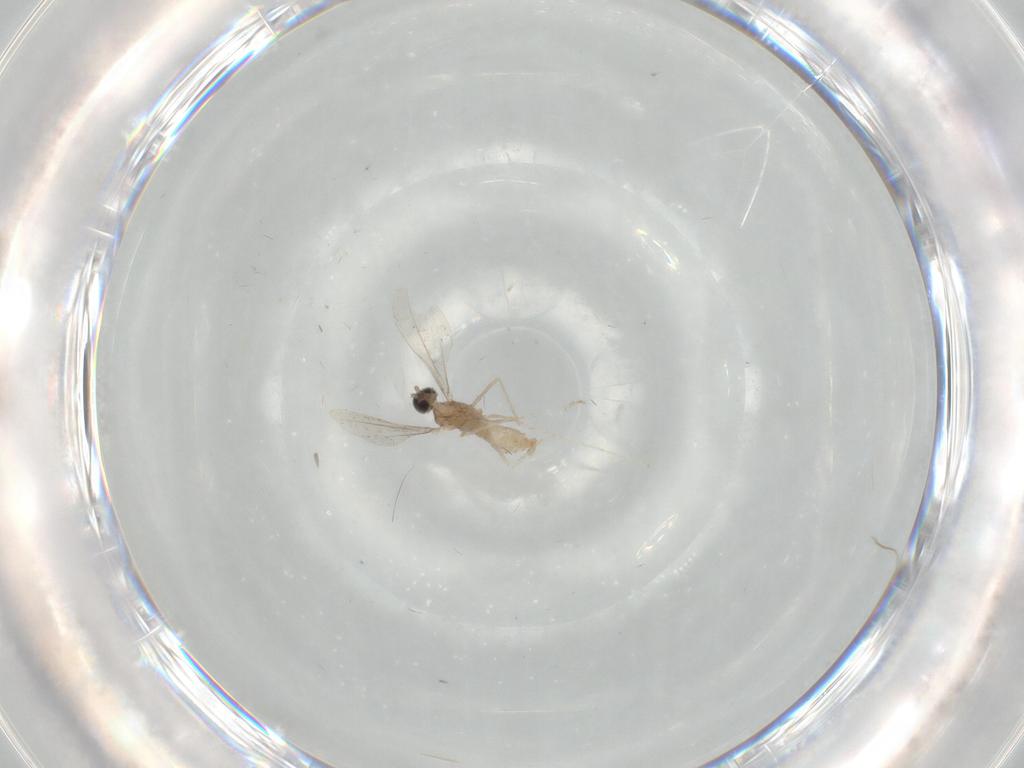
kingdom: Animalia
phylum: Arthropoda
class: Insecta
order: Diptera
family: Cecidomyiidae
